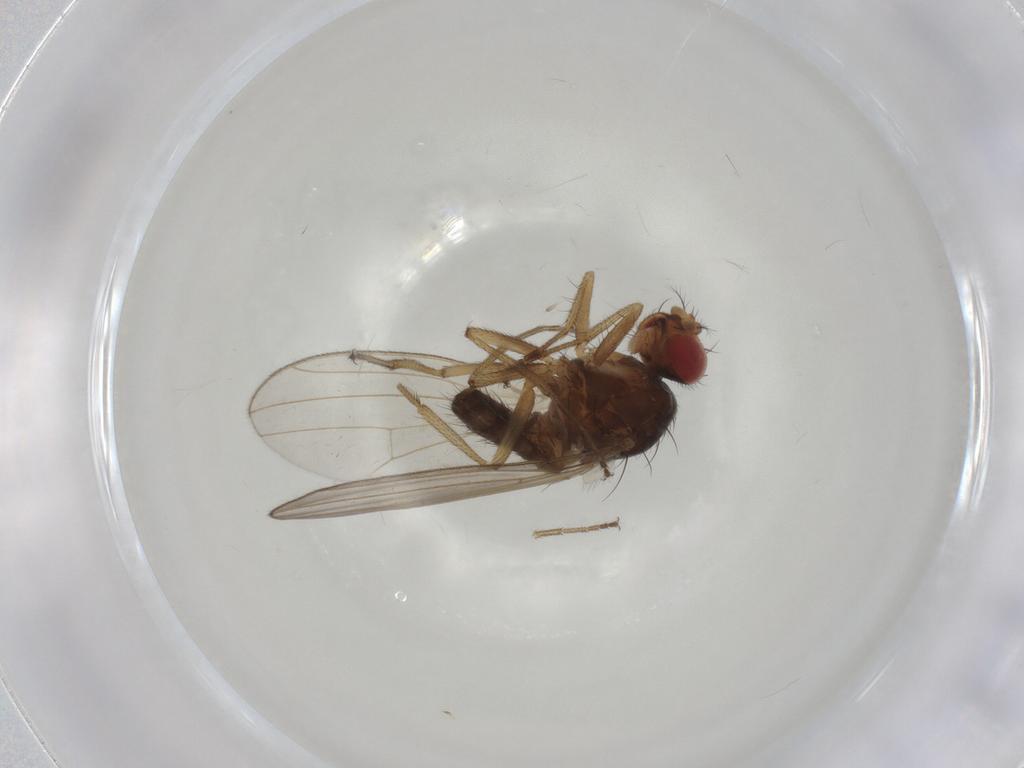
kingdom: Animalia
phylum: Arthropoda
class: Insecta
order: Diptera
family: Drosophilidae
